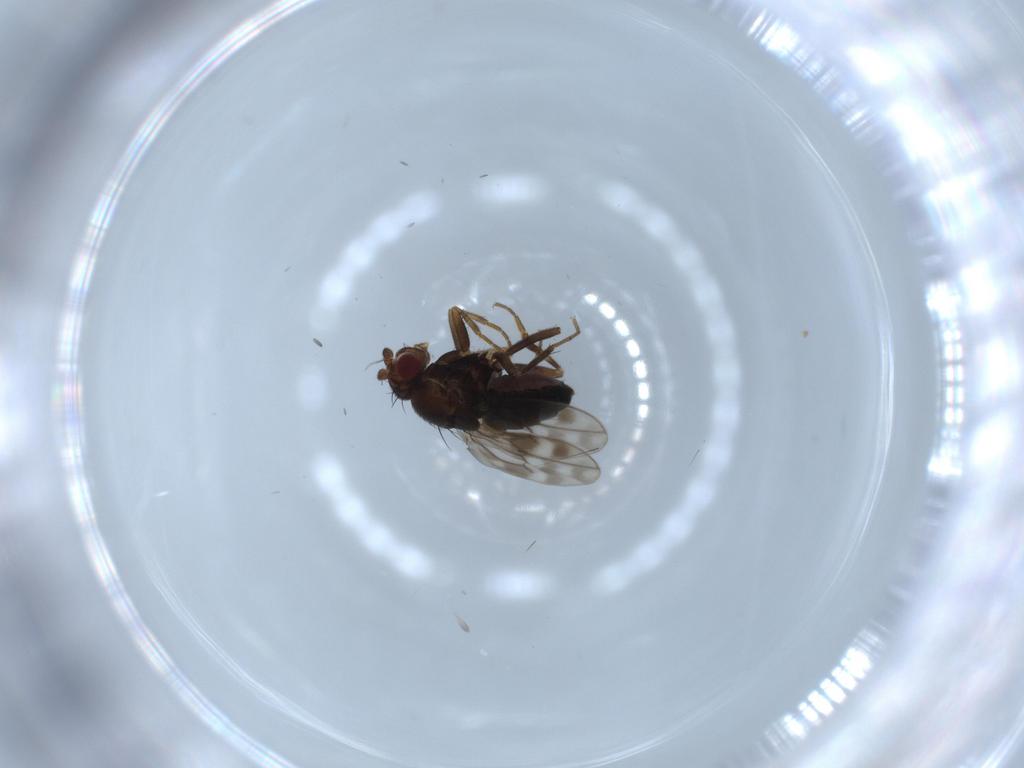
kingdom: Animalia
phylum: Arthropoda
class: Insecta
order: Diptera
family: Sphaeroceridae
